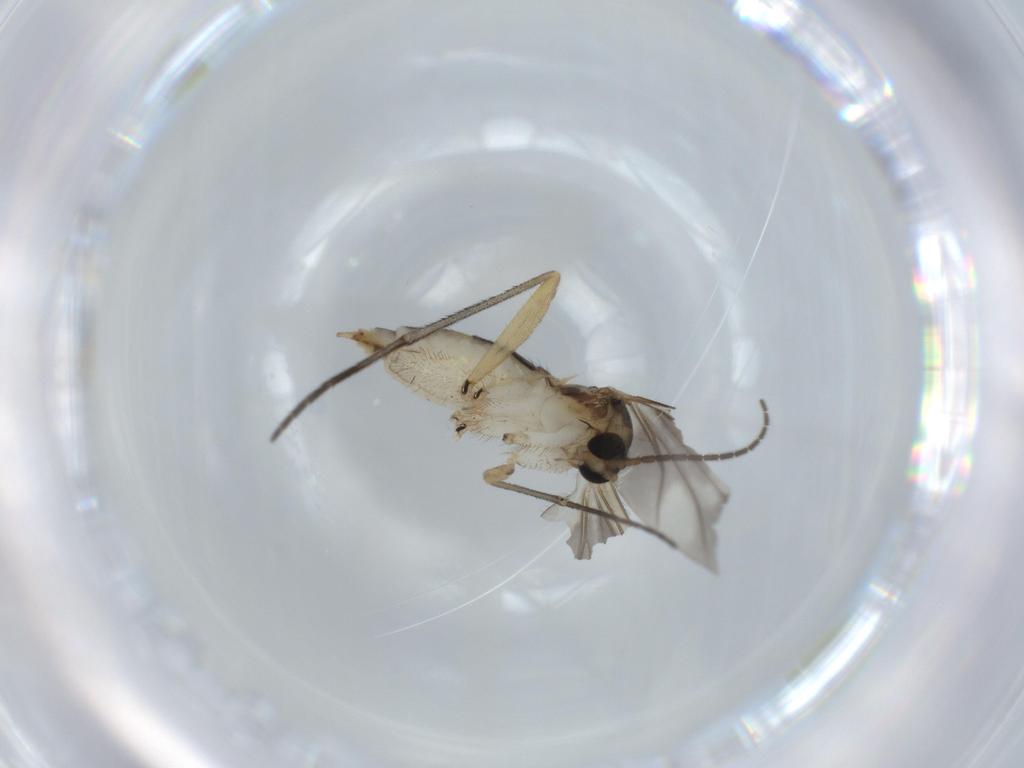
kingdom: Animalia
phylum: Arthropoda
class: Insecta
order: Diptera
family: Sciaridae
